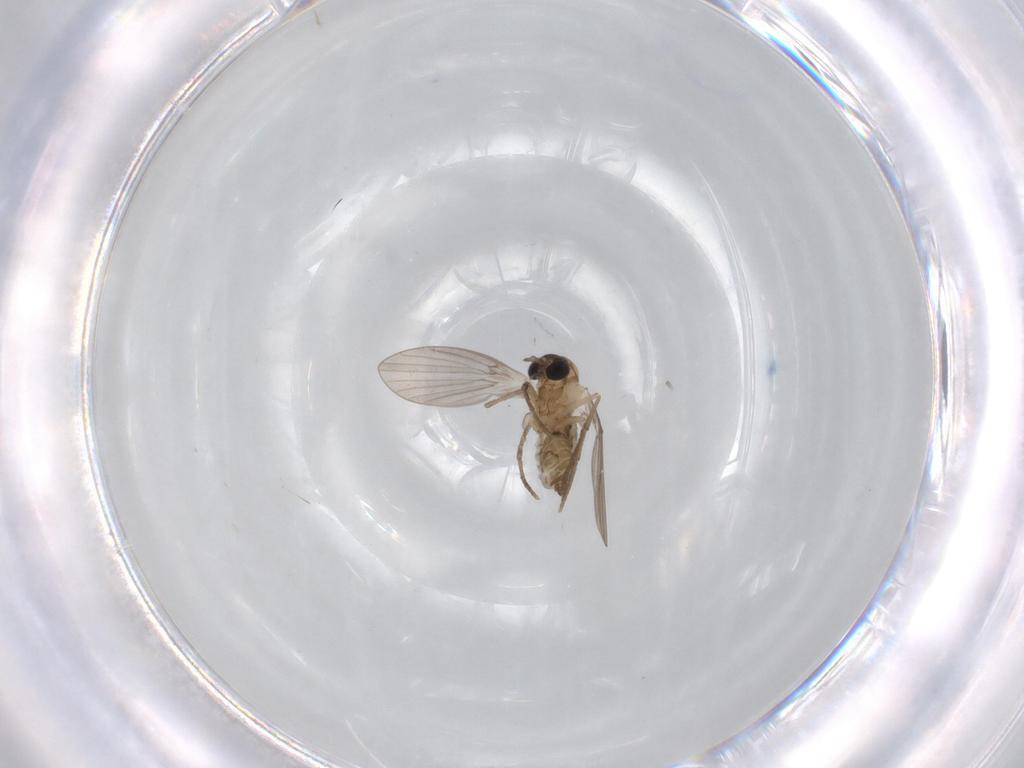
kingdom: Animalia
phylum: Arthropoda
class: Insecta
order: Diptera
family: Phoridae
